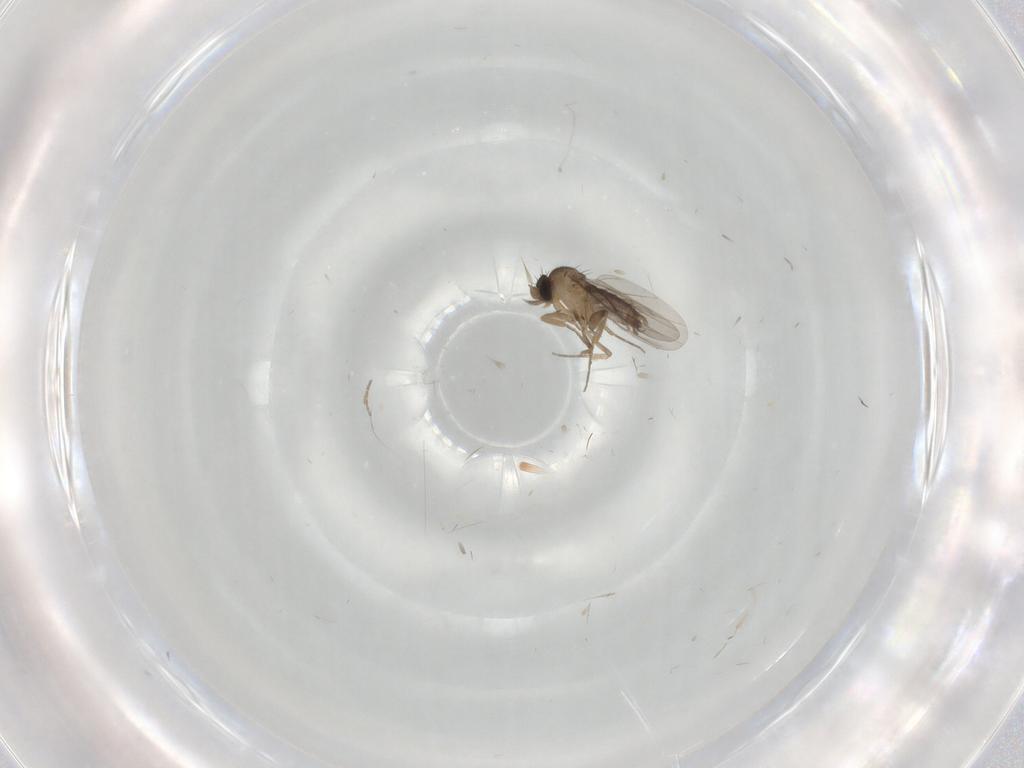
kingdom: Animalia
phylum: Arthropoda
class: Insecta
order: Diptera
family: Phoridae
